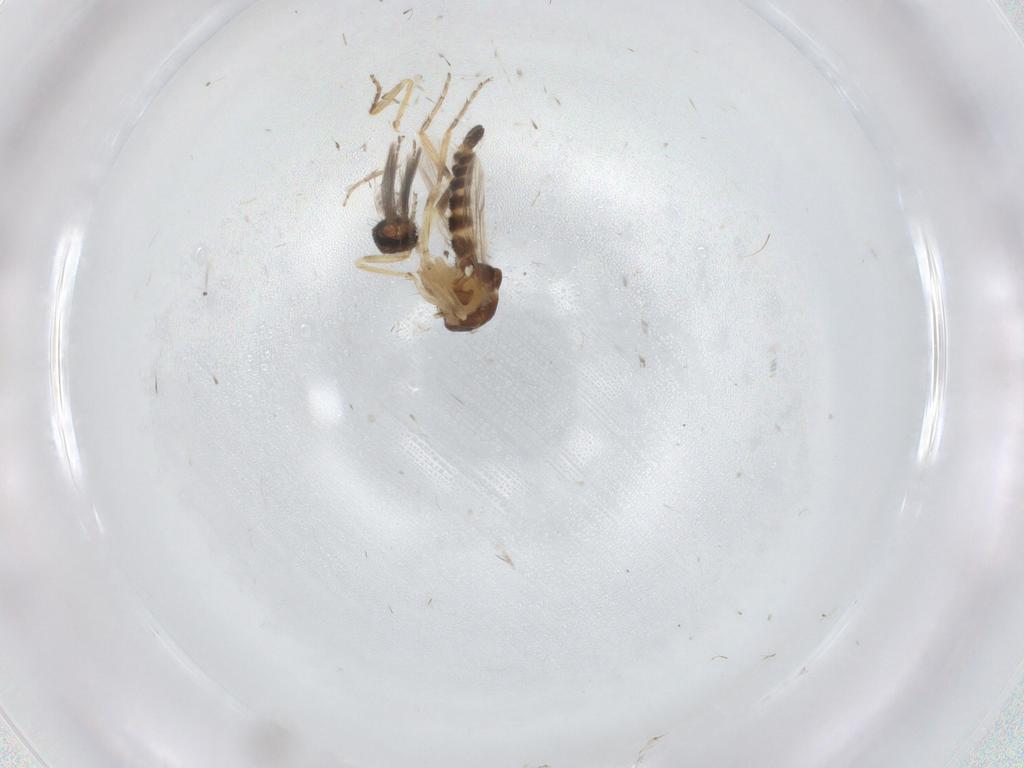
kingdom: Animalia
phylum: Arthropoda
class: Insecta
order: Diptera
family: Ceratopogonidae
